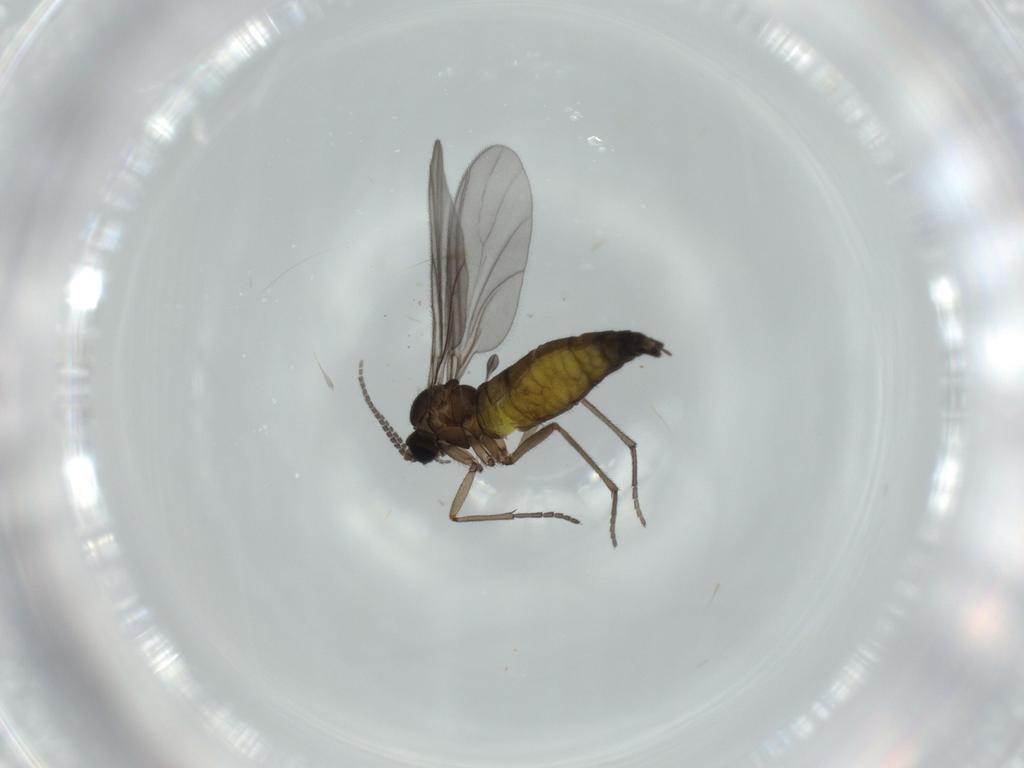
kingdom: Animalia
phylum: Arthropoda
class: Insecta
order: Diptera
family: Sciaridae
